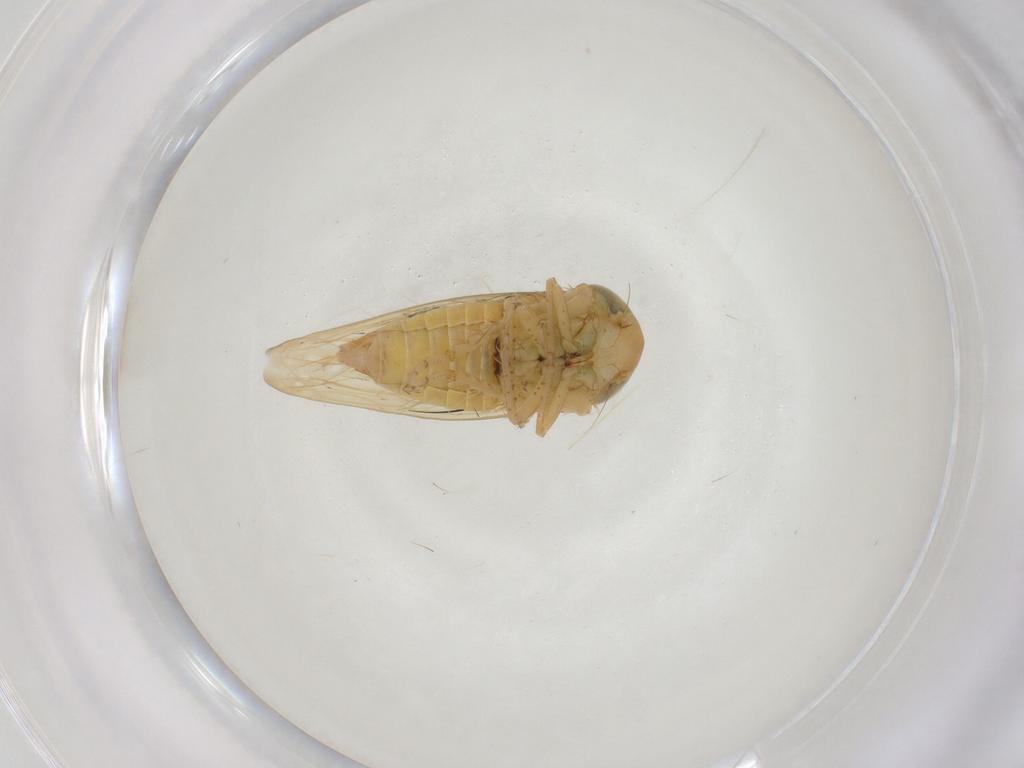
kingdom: Animalia
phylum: Arthropoda
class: Insecta
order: Hemiptera
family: Cicadellidae
